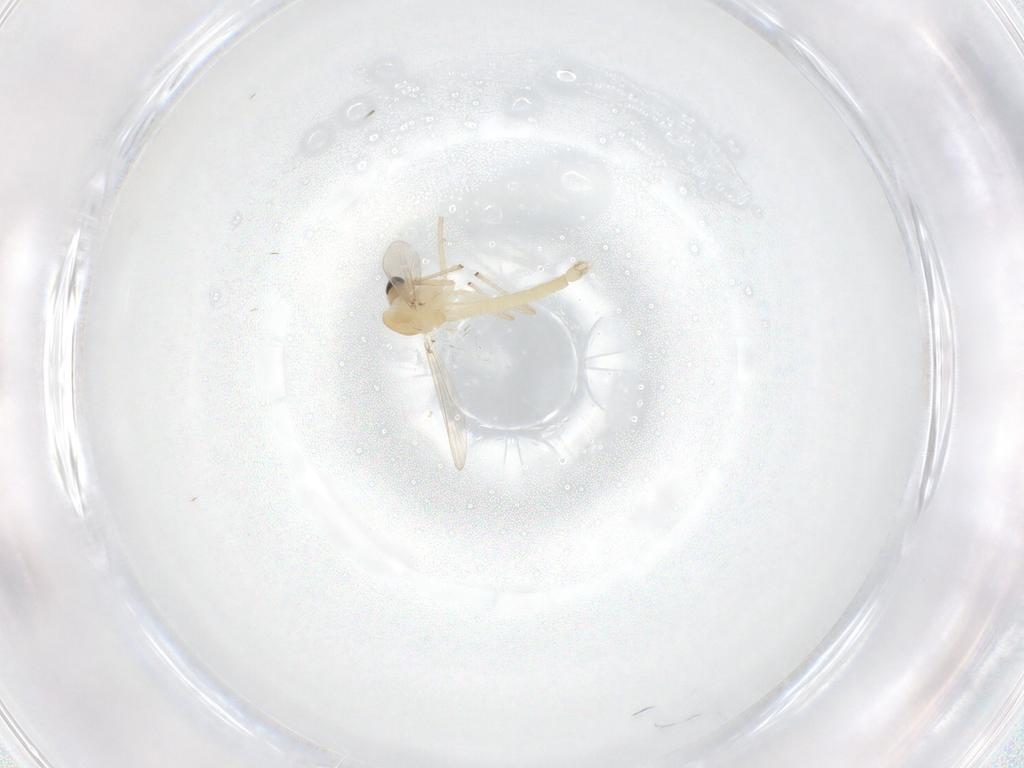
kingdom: Animalia
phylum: Arthropoda
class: Insecta
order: Diptera
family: Chironomidae
